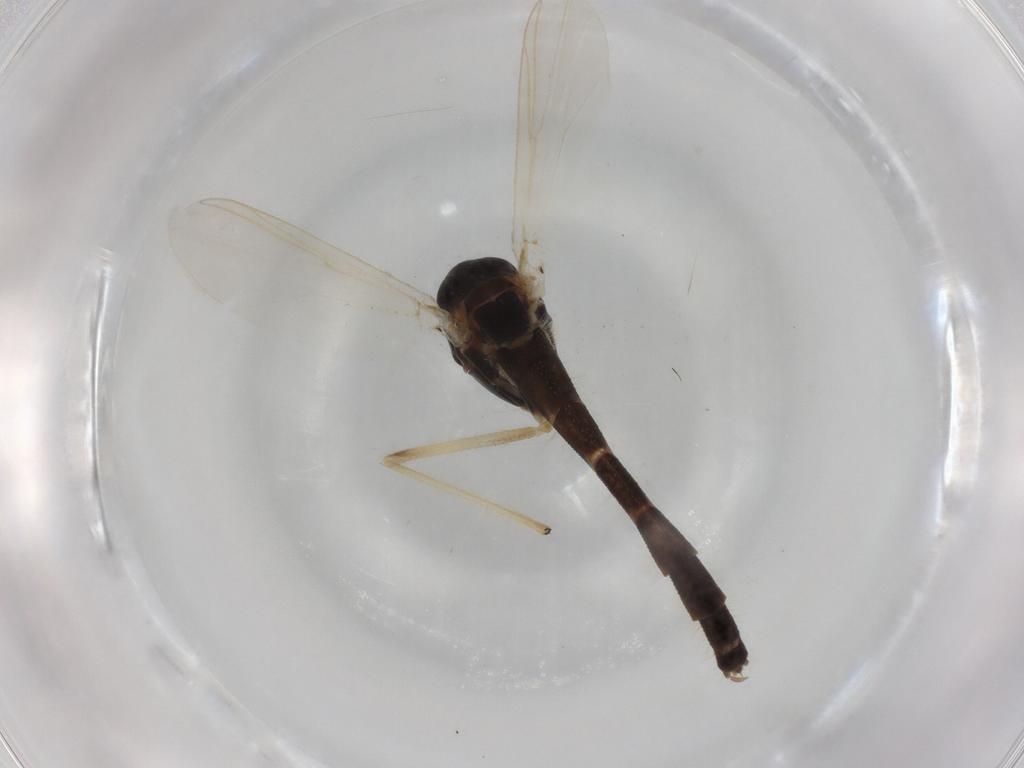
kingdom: Animalia
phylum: Arthropoda
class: Insecta
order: Diptera
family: Chironomidae
